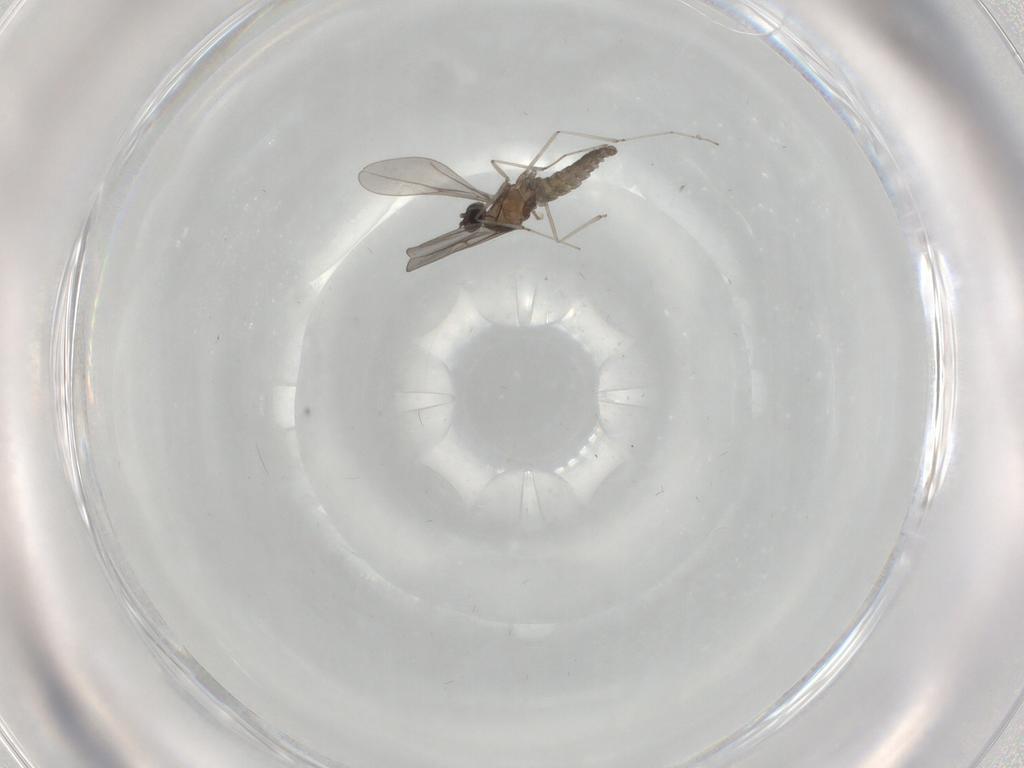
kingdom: Animalia
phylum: Arthropoda
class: Insecta
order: Diptera
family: Cecidomyiidae
